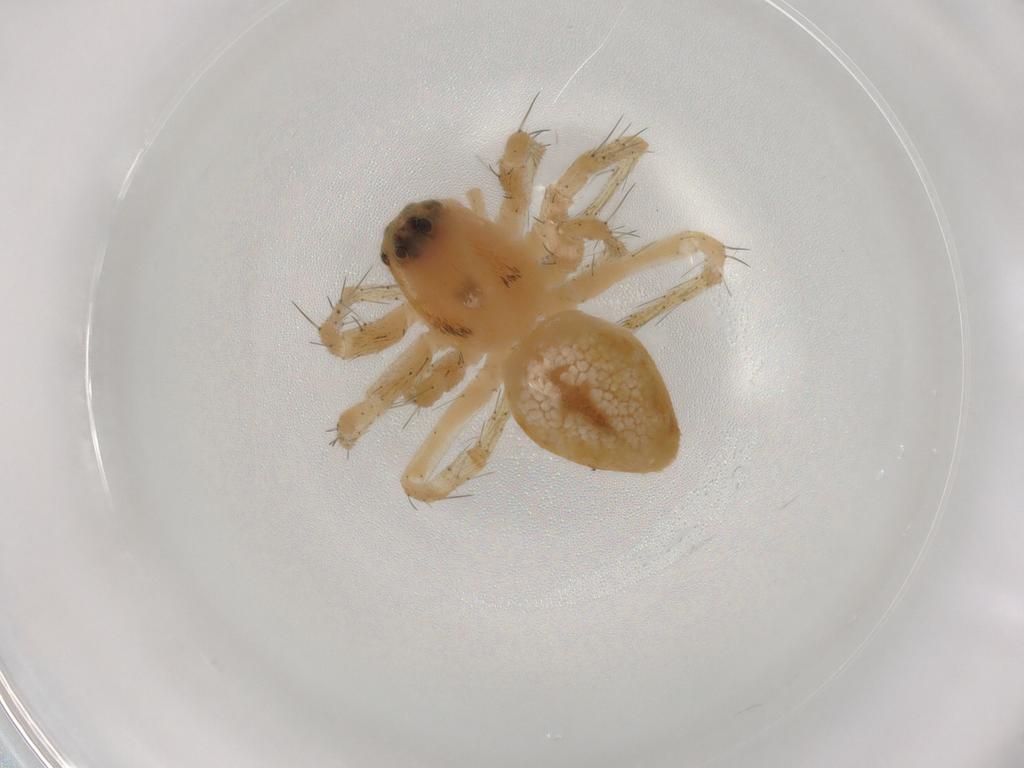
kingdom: Animalia
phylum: Arthropoda
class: Arachnida
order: Araneae
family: Oxyopidae
